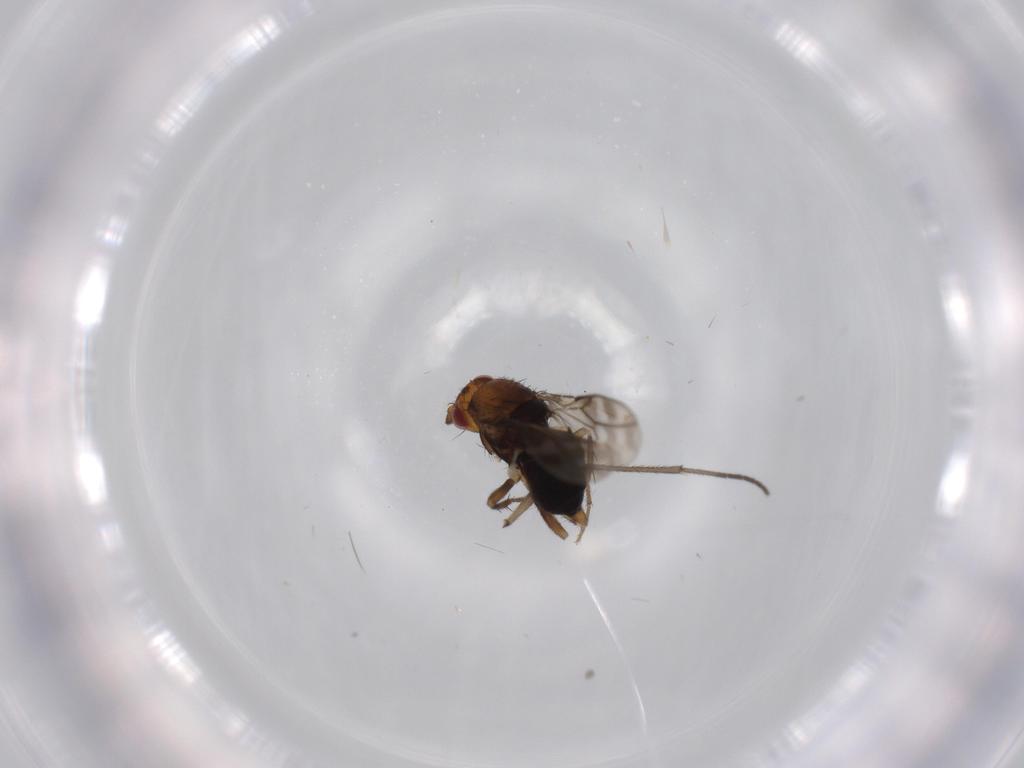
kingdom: Animalia
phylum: Arthropoda
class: Insecta
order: Diptera
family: Sphaeroceridae
